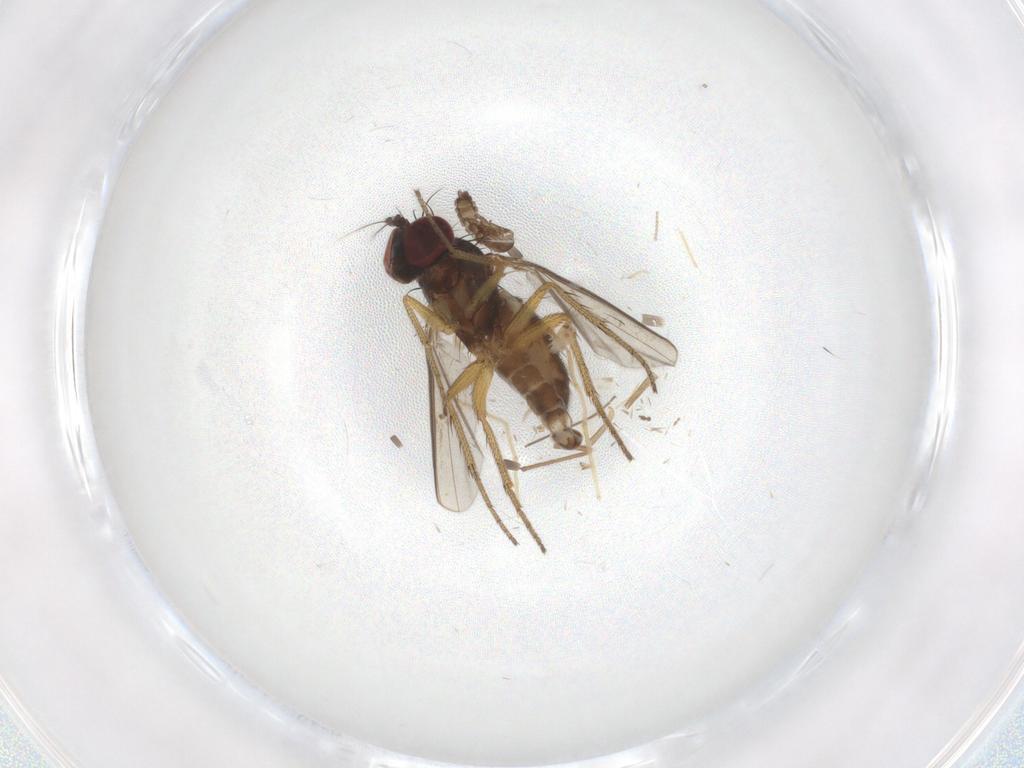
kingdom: Animalia
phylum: Arthropoda
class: Insecta
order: Diptera
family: Dolichopodidae
